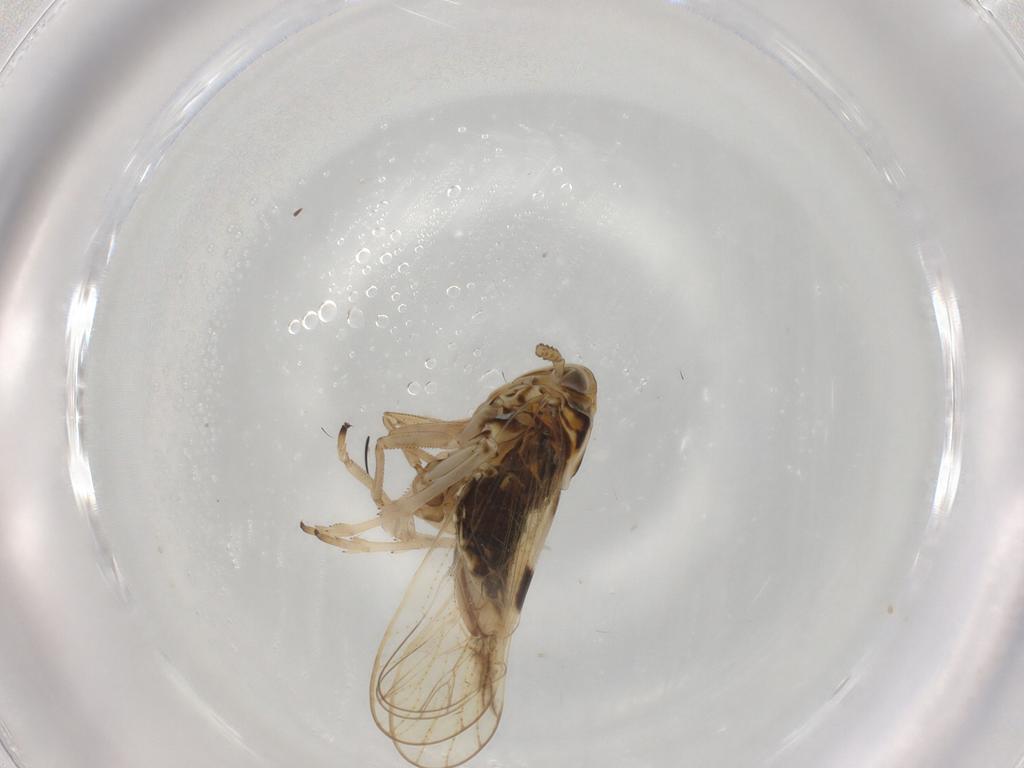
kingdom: Animalia
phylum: Arthropoda
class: Insecta
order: Hemiptera
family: Delphacidae
